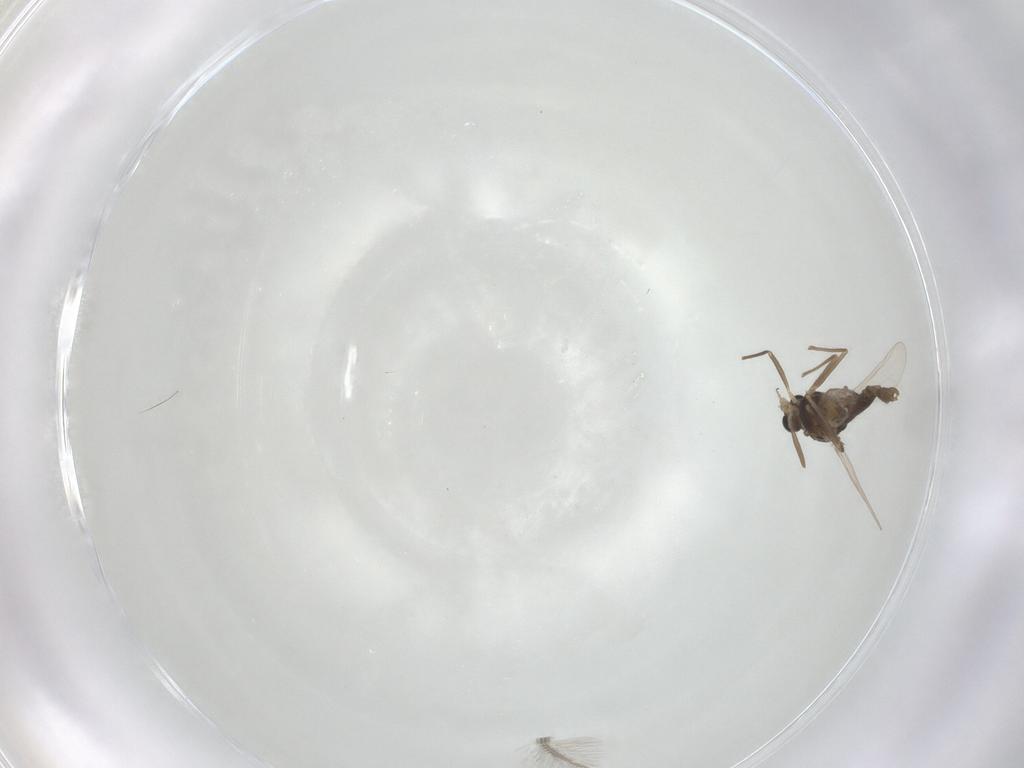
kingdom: Animalia
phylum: Arthropoda
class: Insecta
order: Diptera
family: Chironomidae
